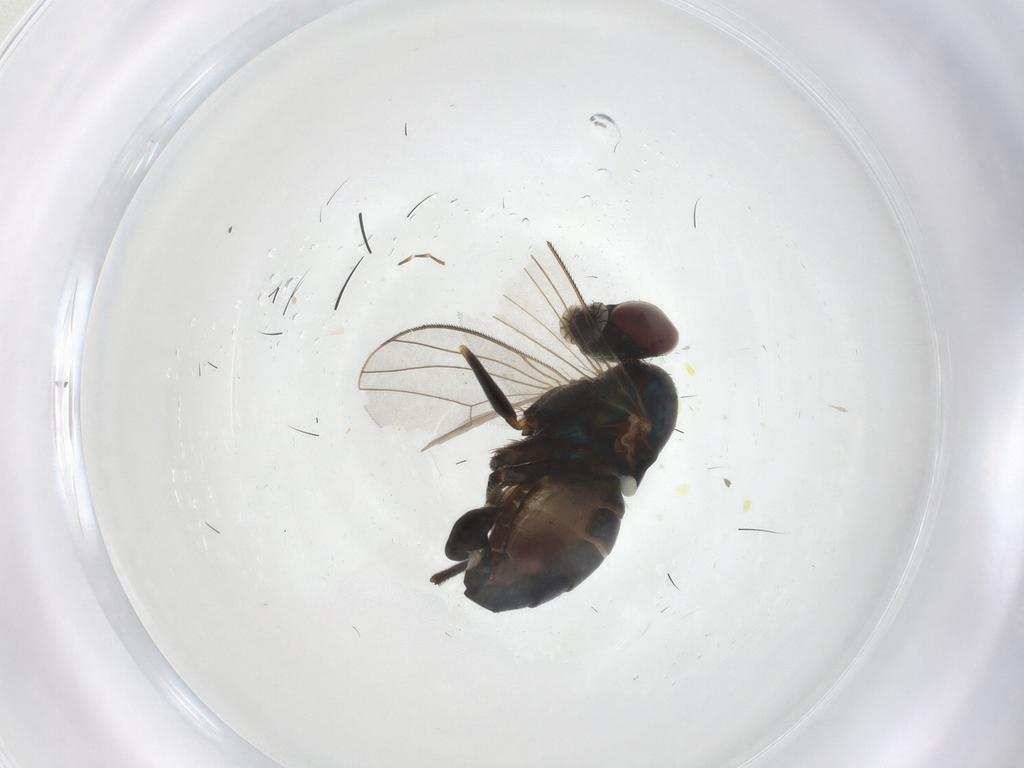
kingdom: Animalia
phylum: Arthropoda
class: Insecta
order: Diptera
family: Dolichopodidae
